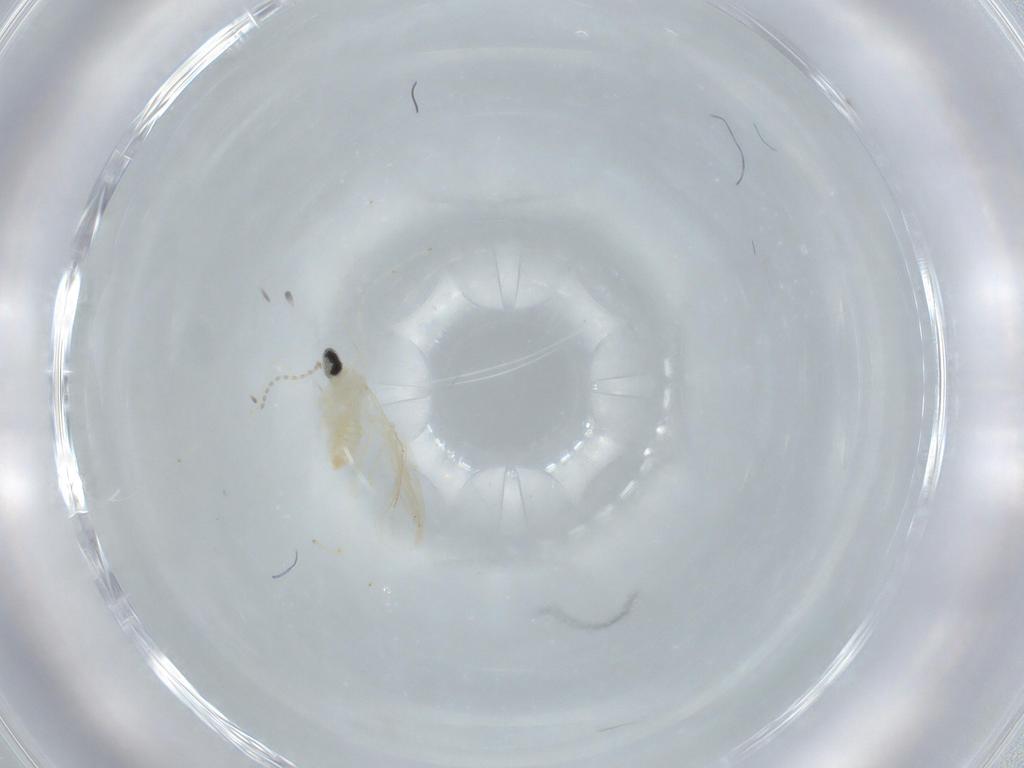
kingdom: Animalia
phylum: Arthropoda
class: Insecta
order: Diptera
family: Cecidomyiidae
